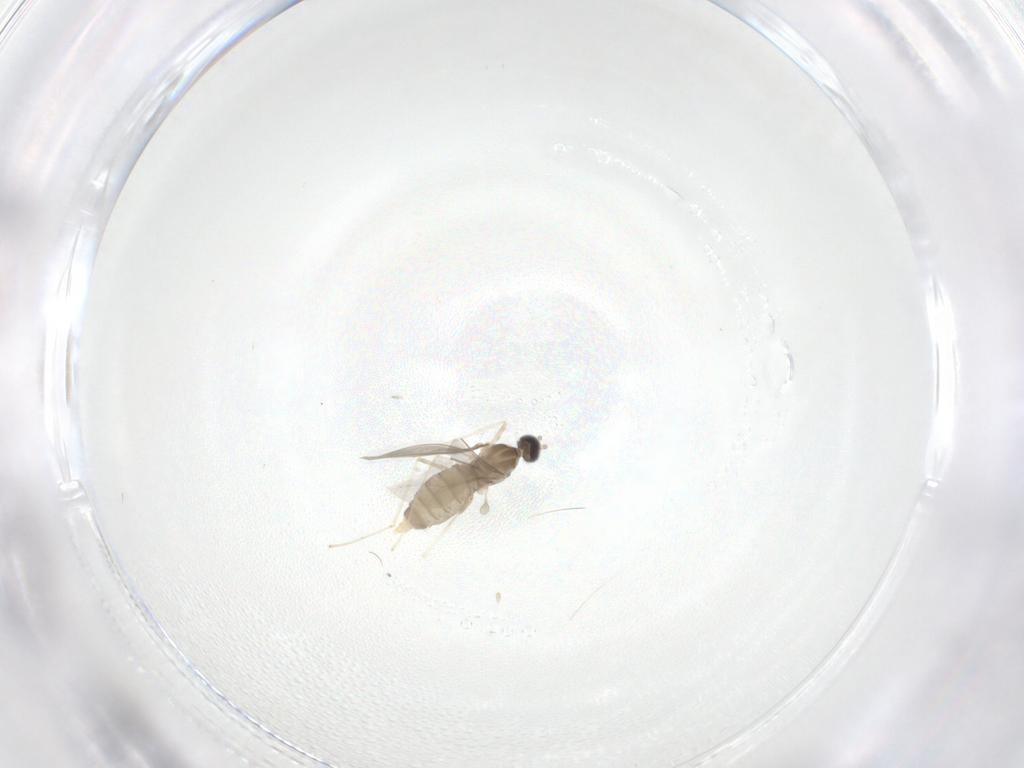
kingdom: Animalia
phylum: Arthropoda
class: Insecta
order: Diptera
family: Cecidomyiidae
